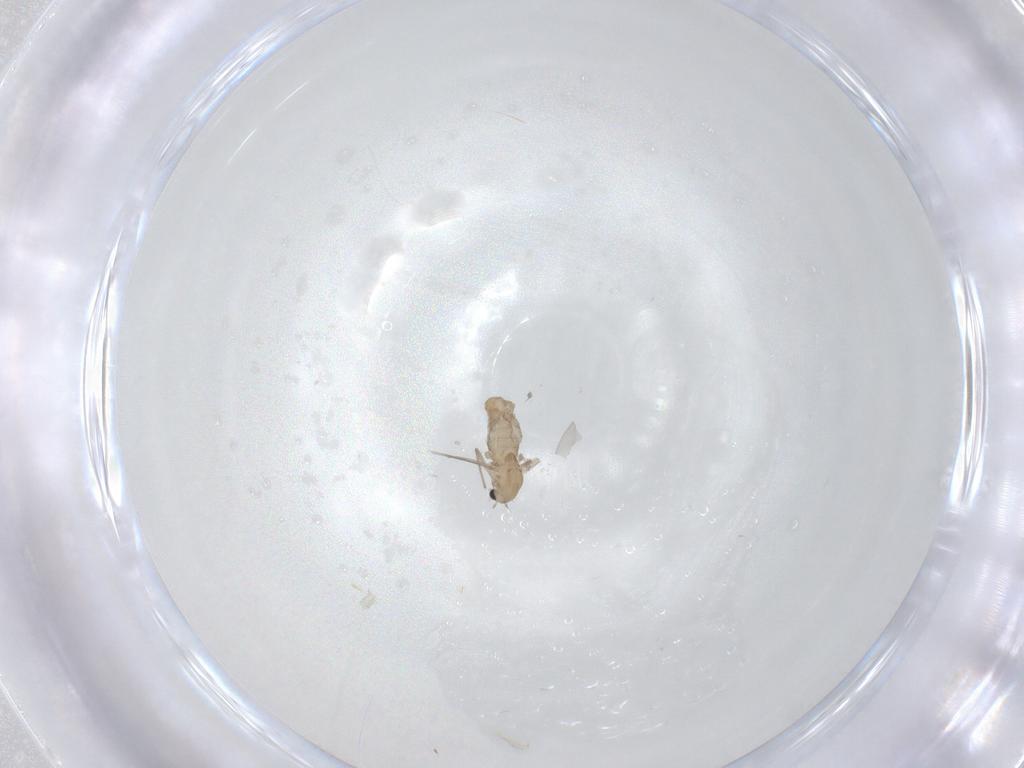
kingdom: Animalia
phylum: Arthropoda
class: Insecta
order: Diptera
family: Chironomidae
